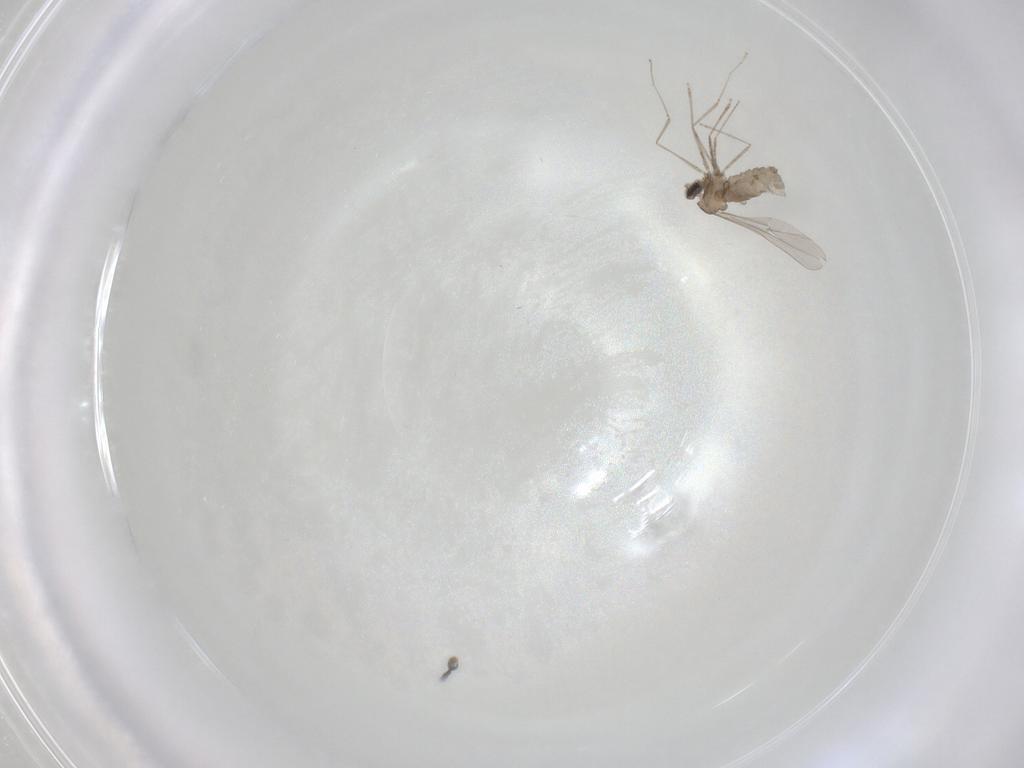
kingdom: Animalia
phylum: Arthropoda
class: Insecta
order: Diptera
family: Cecidomyiidae
